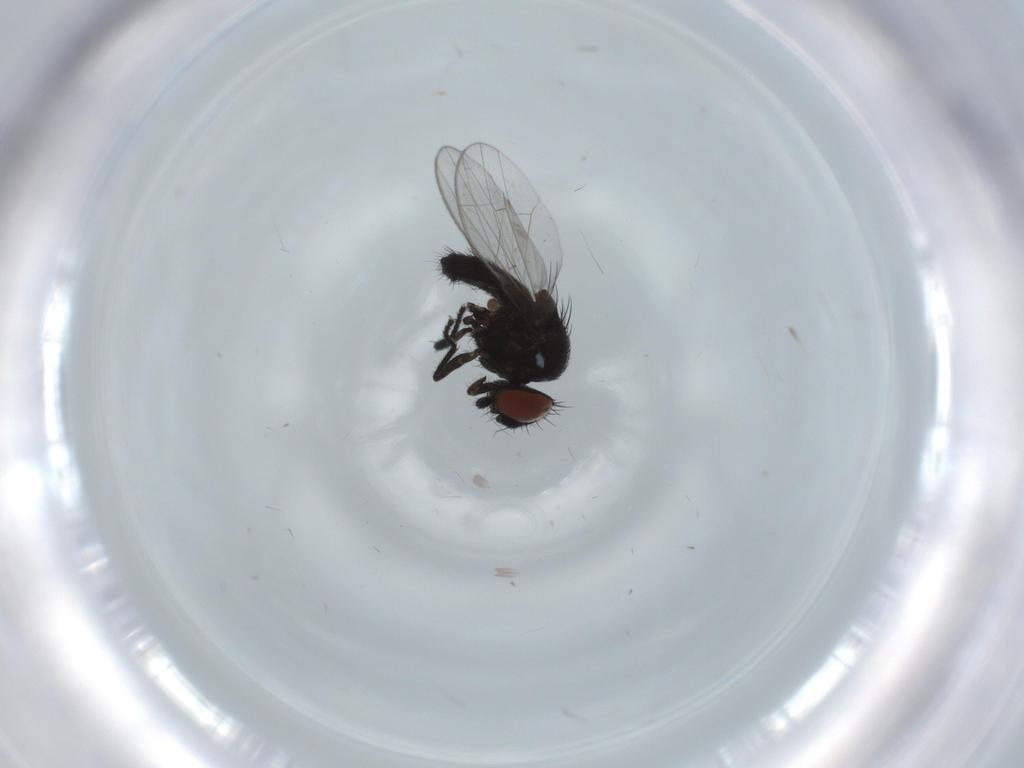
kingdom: Animalia
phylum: Arthropoda
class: Insecta
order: Diptera
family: Milichiidae
